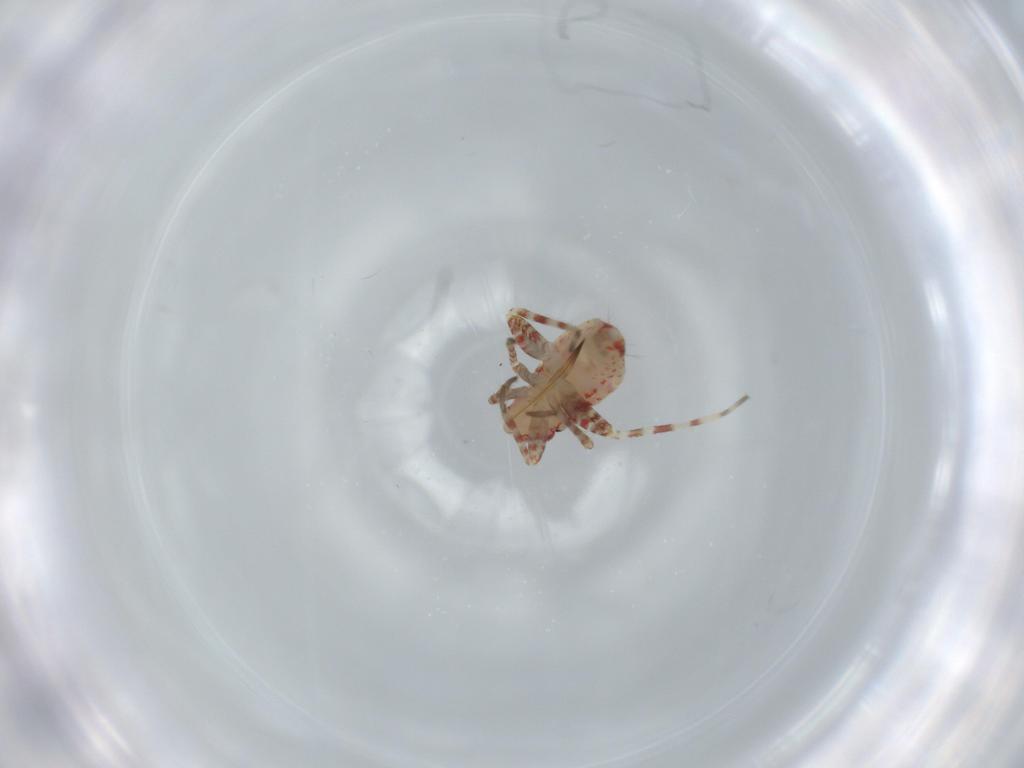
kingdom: Animalia
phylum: Arthropoda
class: Insecta
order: Hemiptera
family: Miridae
